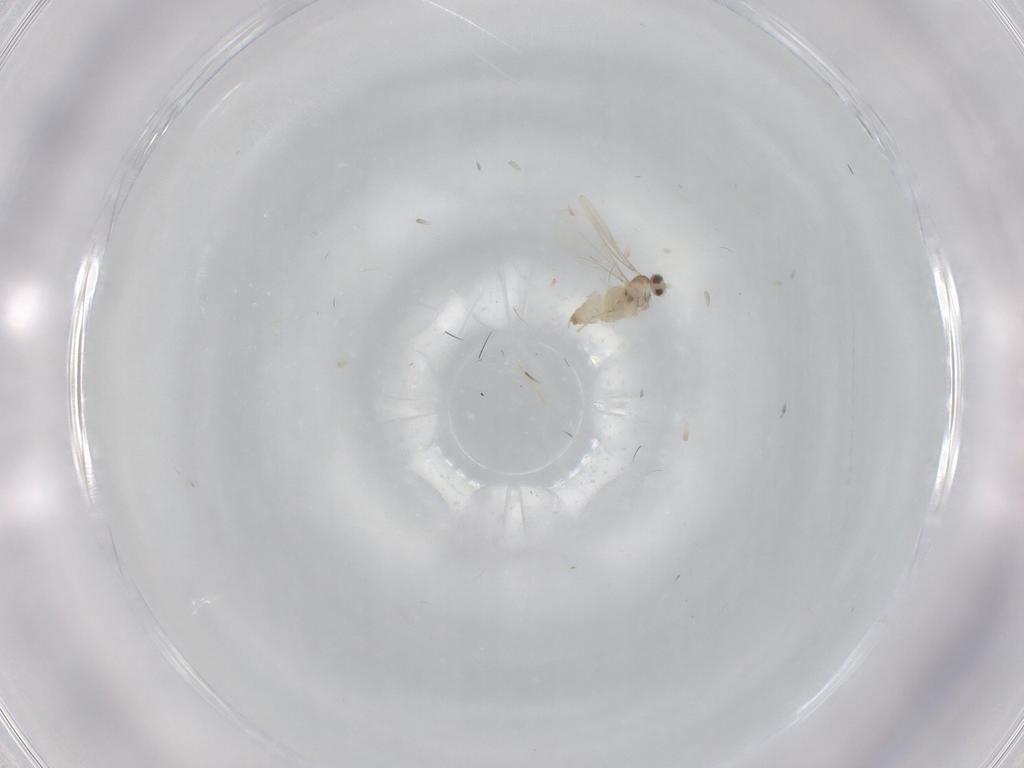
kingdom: Animalia
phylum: Arthropoda
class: Insecta
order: Diptera
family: Cecidomyiidae
